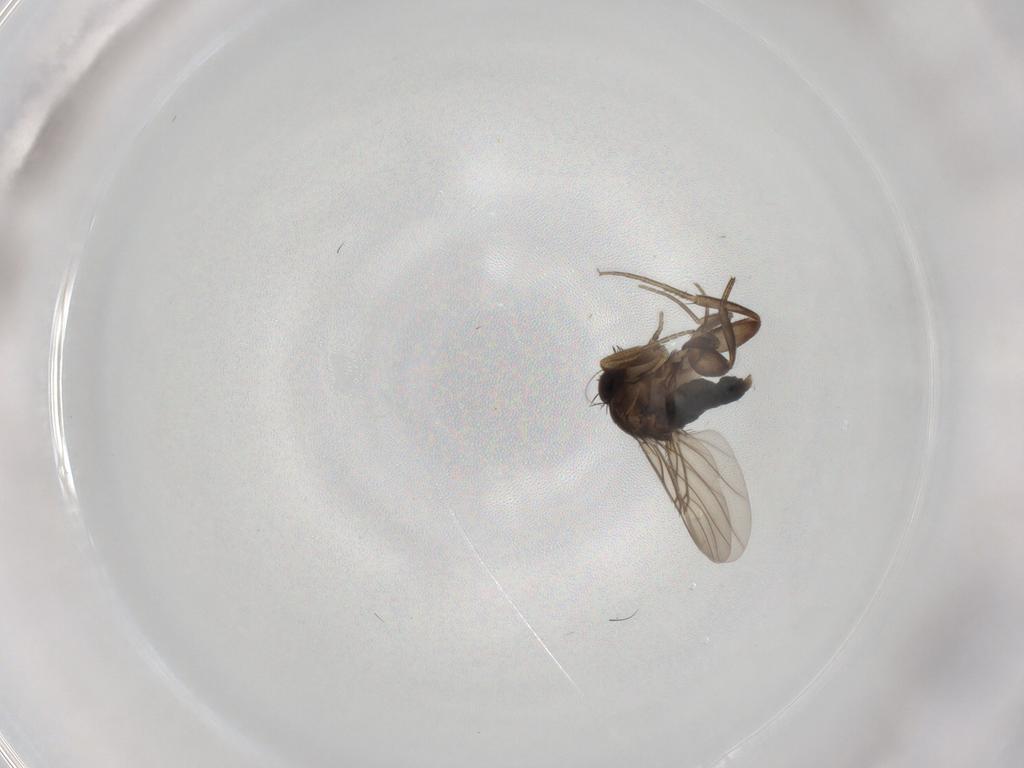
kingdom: Animalia
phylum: Arthropoda
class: Insecta
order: Diptera
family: Phoridae
